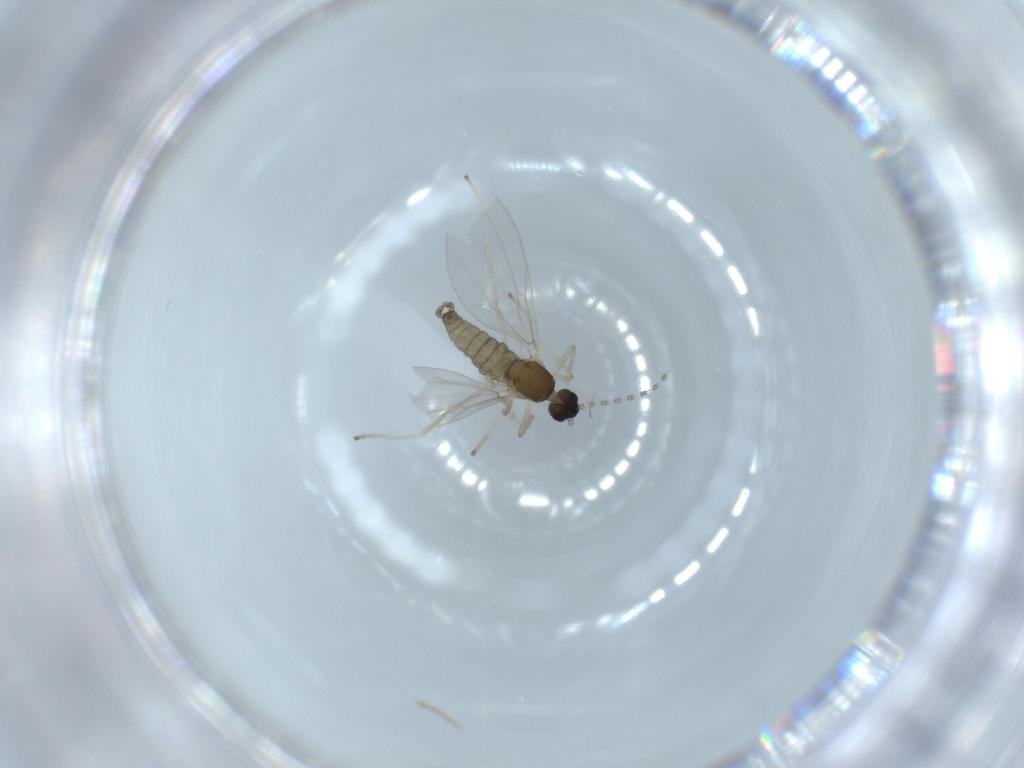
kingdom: Animalia
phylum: Arthropoda
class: Insecta
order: Diptera
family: Cecidomyiidae
